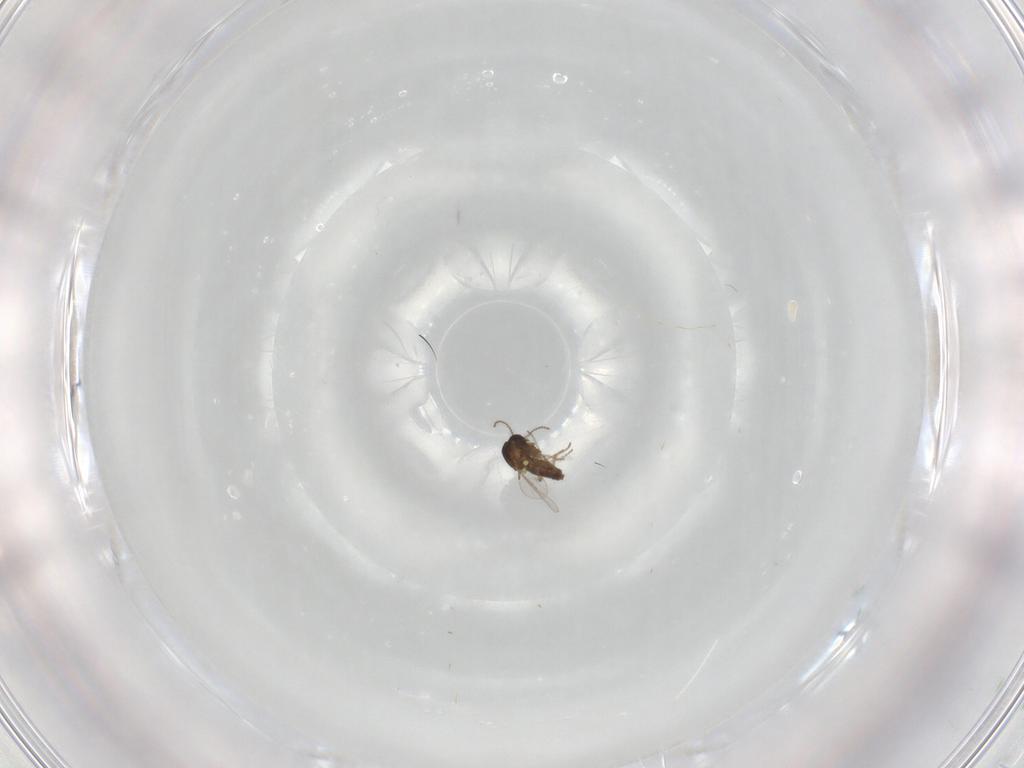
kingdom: Animalia
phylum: Arthropoda
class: Insecta
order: Diptera
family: Ceratopogonidae
